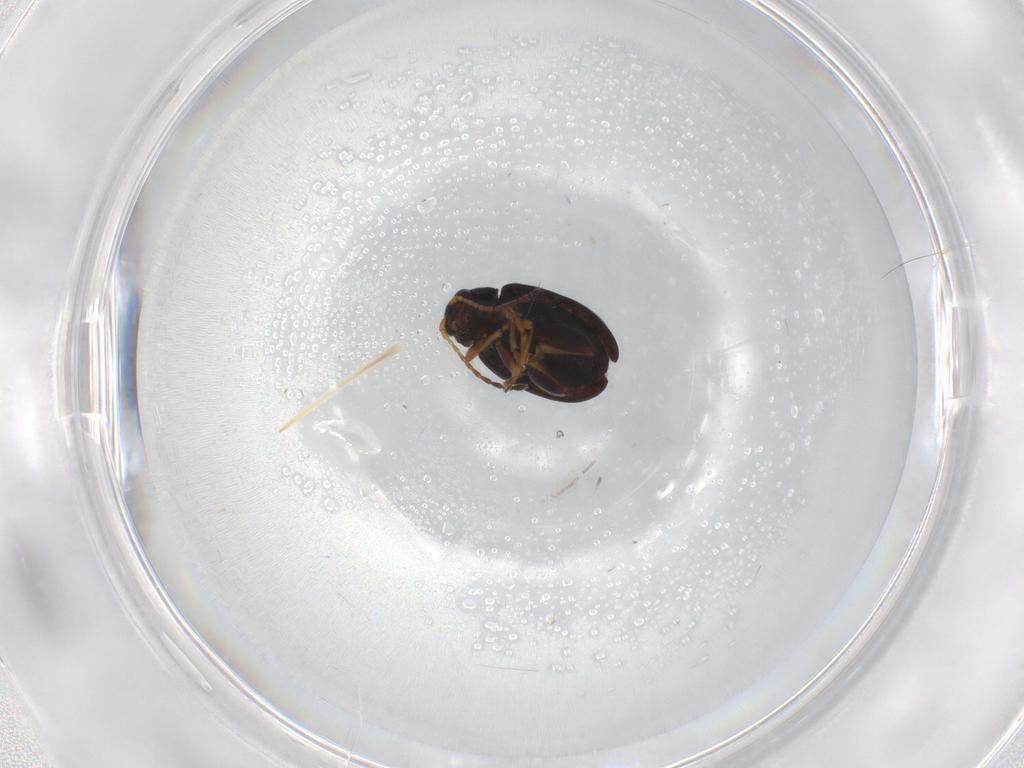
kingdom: Animalia
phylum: Arthropoda
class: Insecta
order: Coleoptera
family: Chrysomelidae
